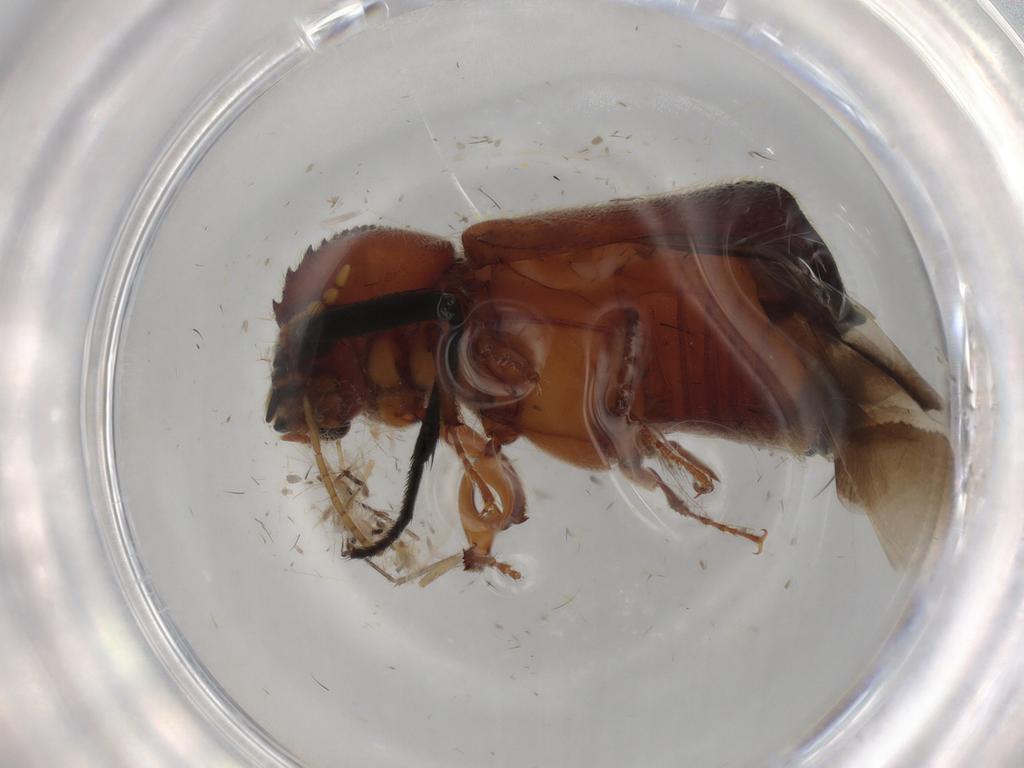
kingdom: Animalia
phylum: Arthropoda
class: Insecta
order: Coleoptera
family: Bostrichidae
